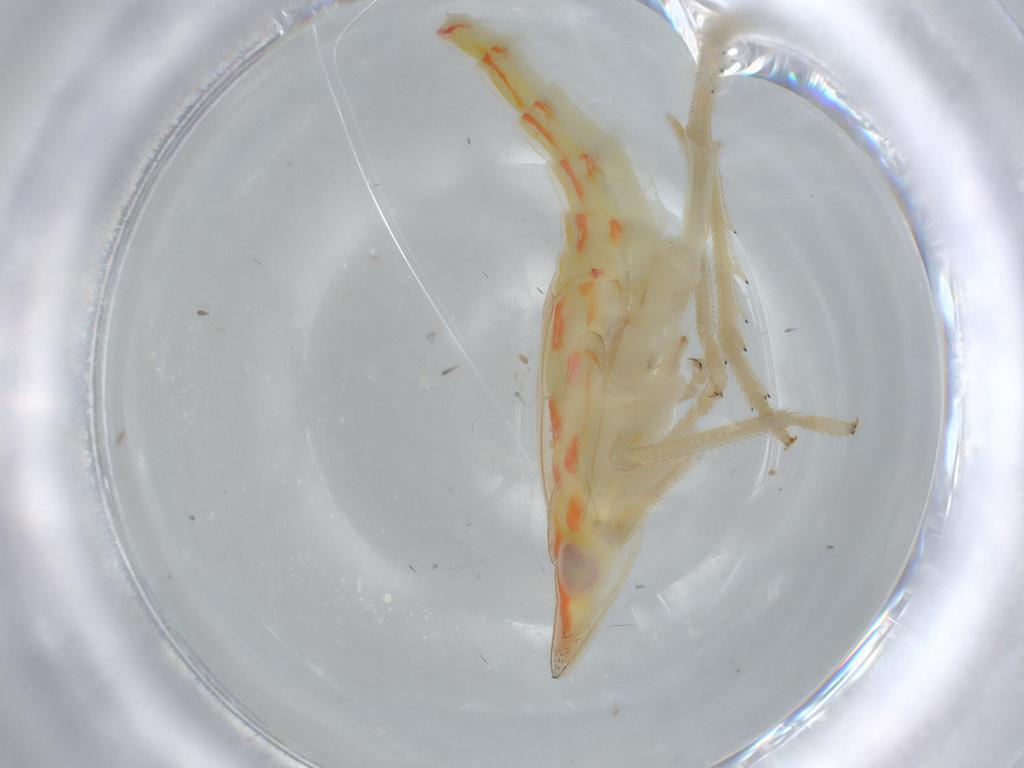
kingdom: Animalia
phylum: Arthropoda
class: Insecta
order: Hemiptera
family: Tropiduchidae
